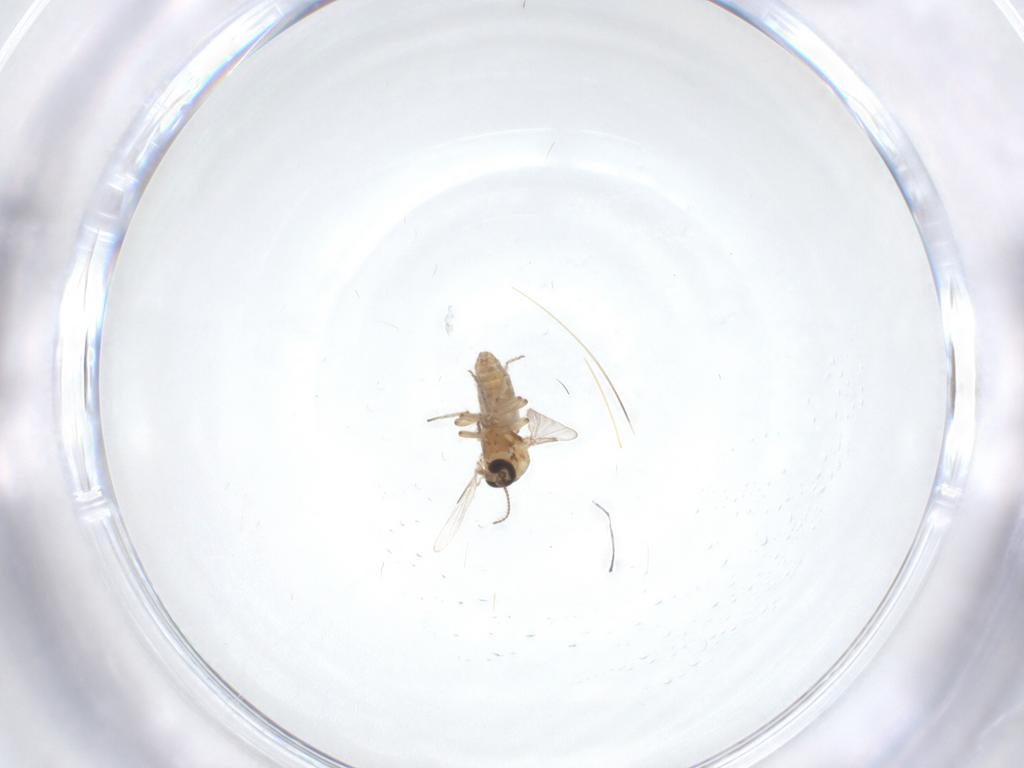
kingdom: Animalia
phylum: Arthropoda
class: Insecta
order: Diptera
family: Ceratopogonidae
